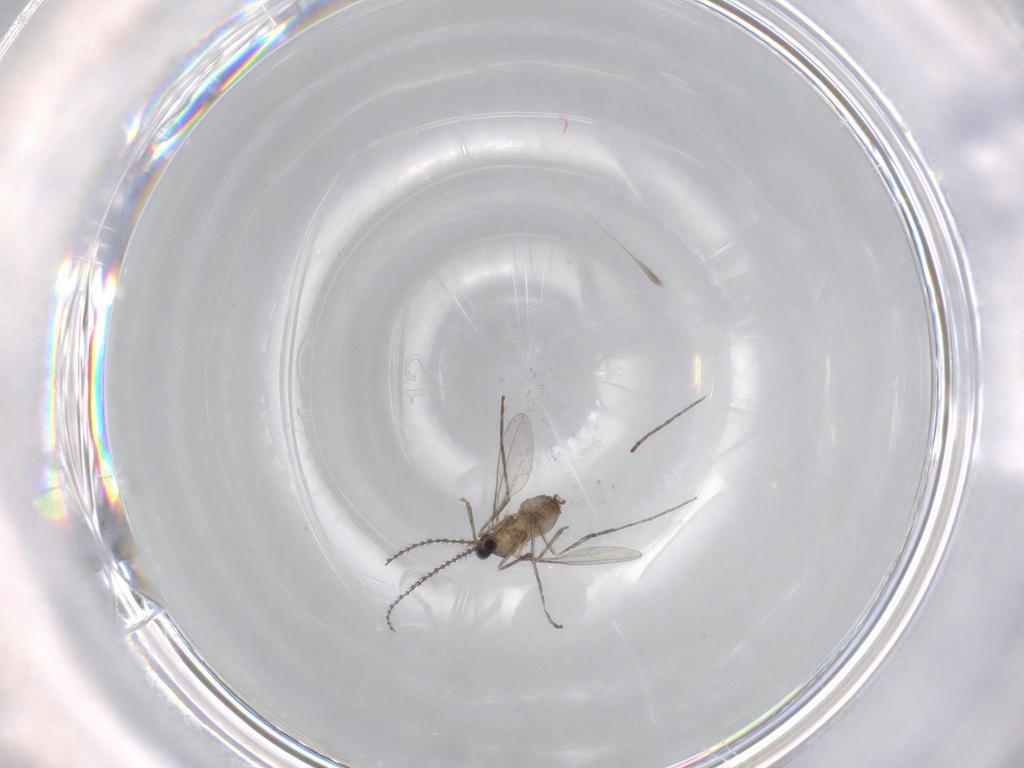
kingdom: Animalia
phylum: Arthropoda
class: Insecta
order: Diptera
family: Cecidomyiidae
